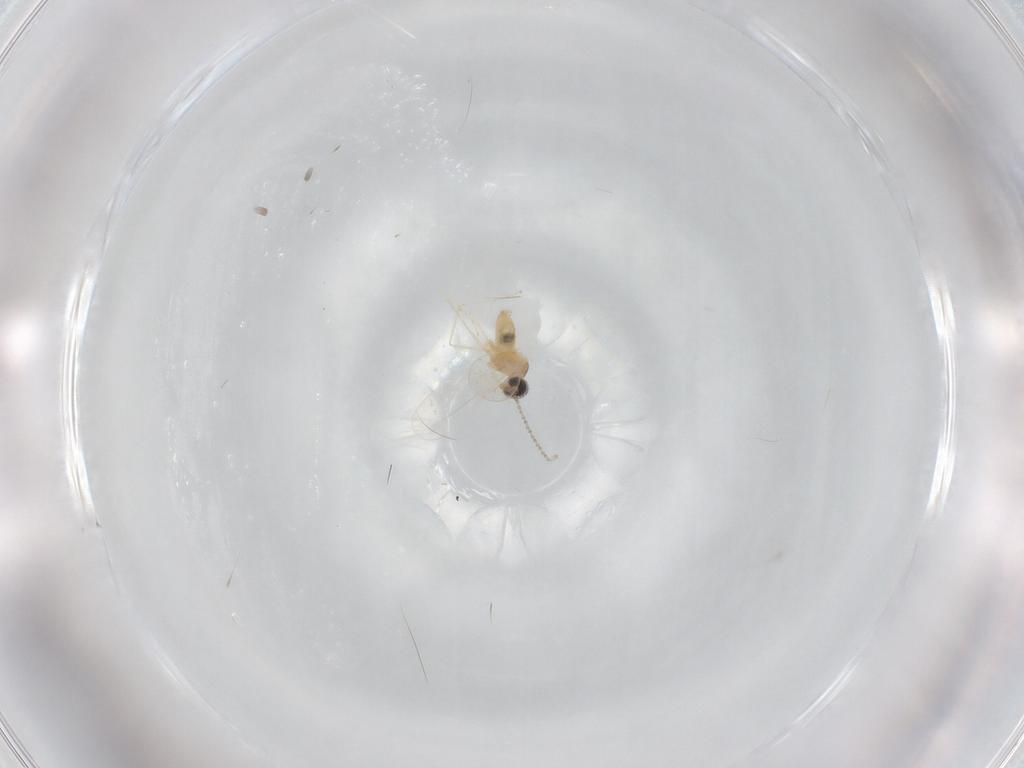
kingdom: Animalia
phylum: Arthropoda
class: Insecta
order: Diptera
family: Cecidomyiidae
